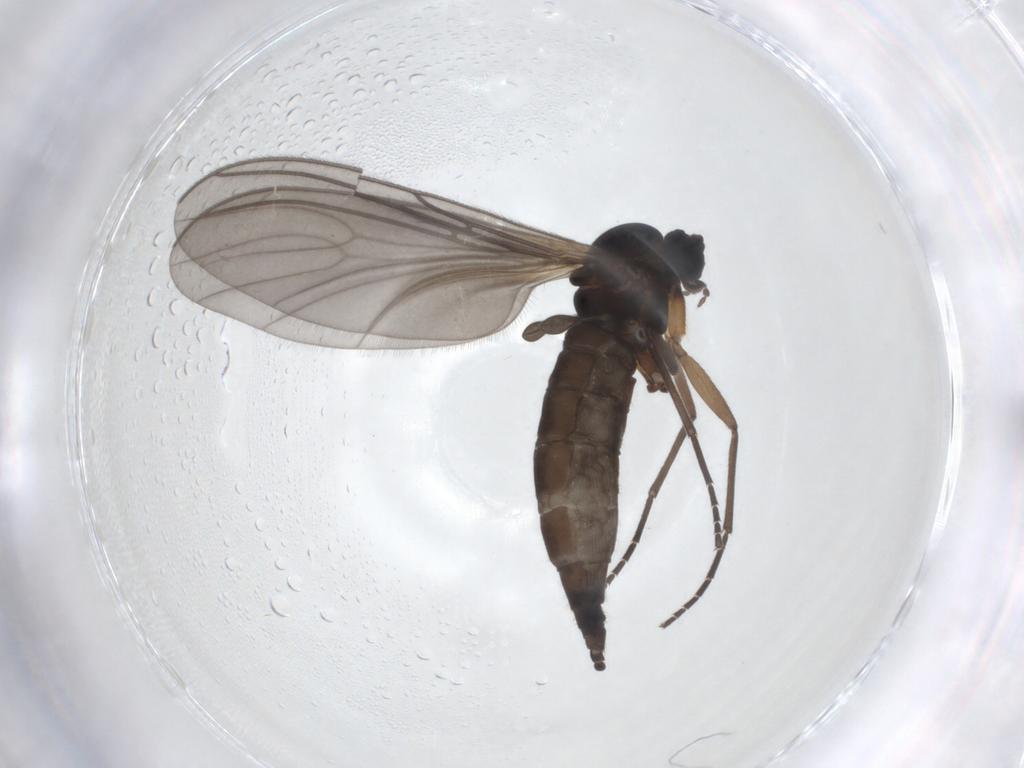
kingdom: Animalia
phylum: Arthropoda
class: Insecta
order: Diptera
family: Sciaridae
